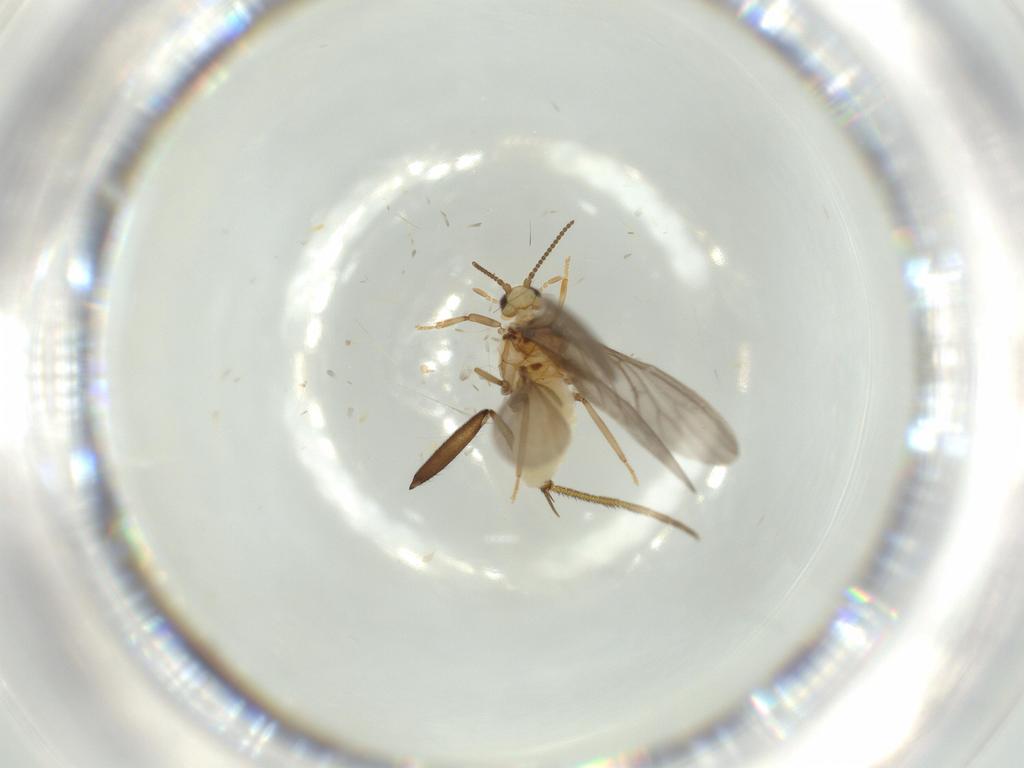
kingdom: Animalia
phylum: Arthropoda
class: Insecta
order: Neuroptera
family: Coniopterygidae
